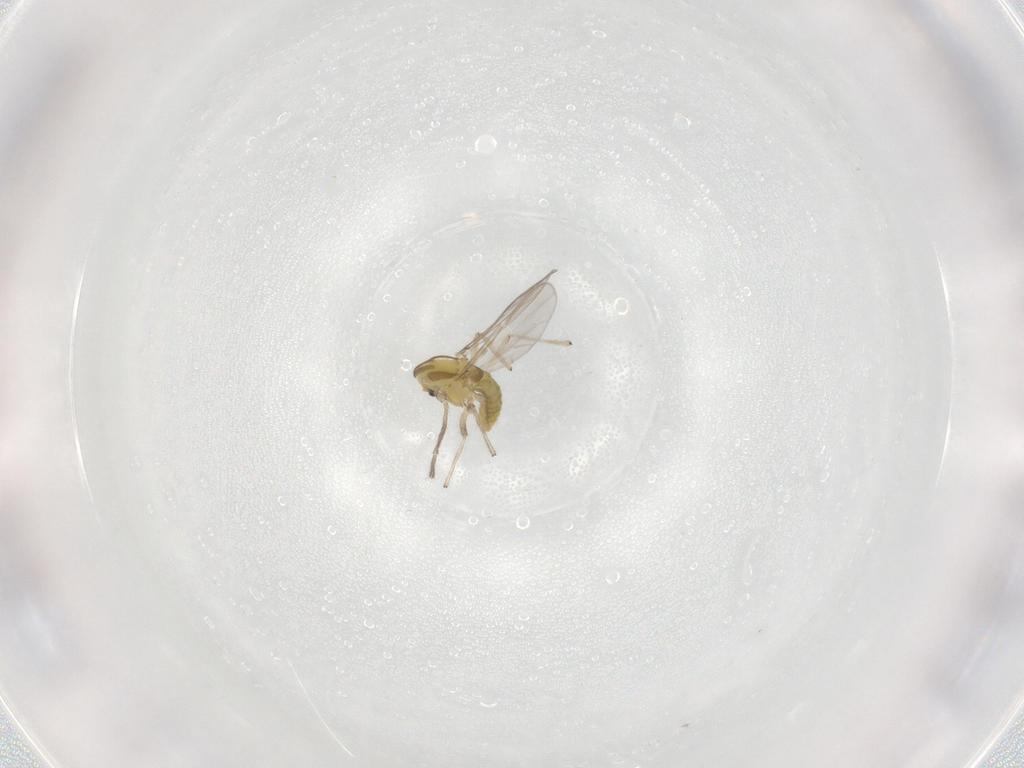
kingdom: Animalia
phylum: Arthropoda
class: Insecta
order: Diptera
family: Chironomidae
